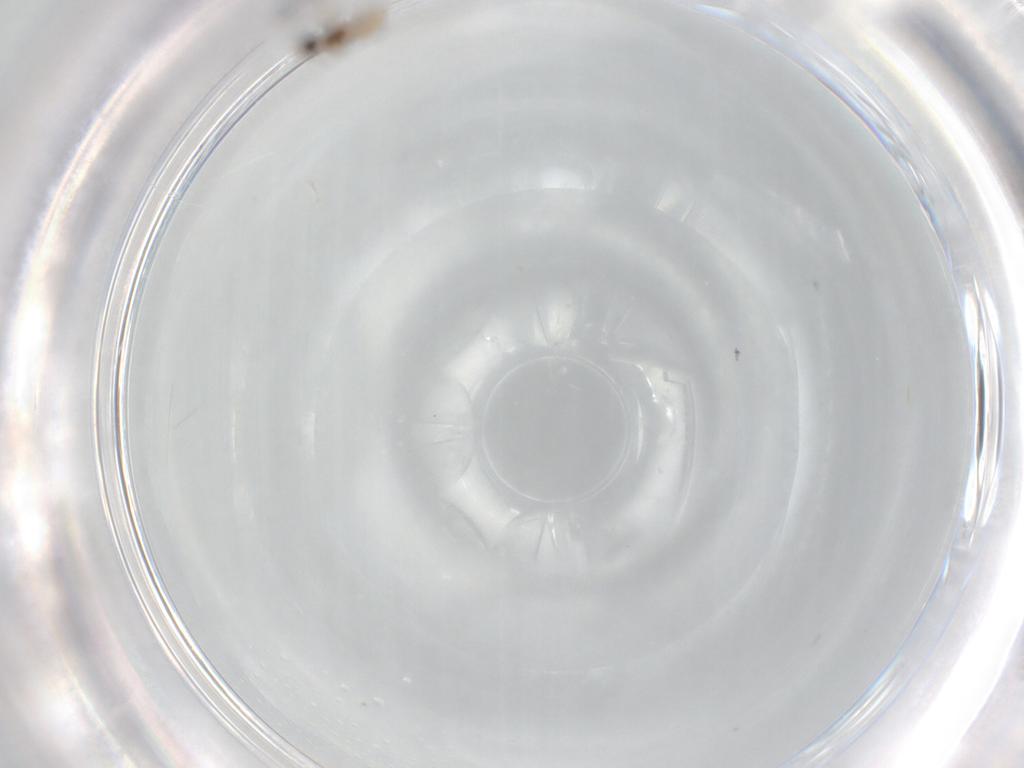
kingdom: Animalia
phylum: Arthropoda
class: Insecta
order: Diptera
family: Cecidomyiidae
